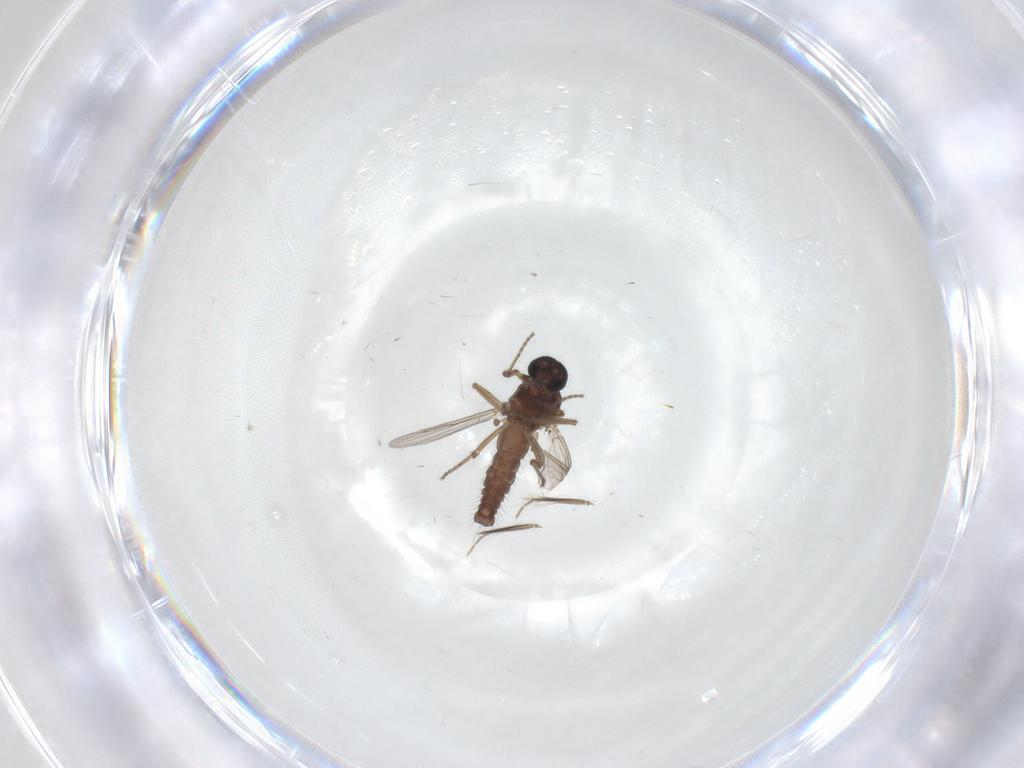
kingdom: Animalia
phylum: Arthropoda
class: Insecta
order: Diptera
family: Ceratopogonidae
